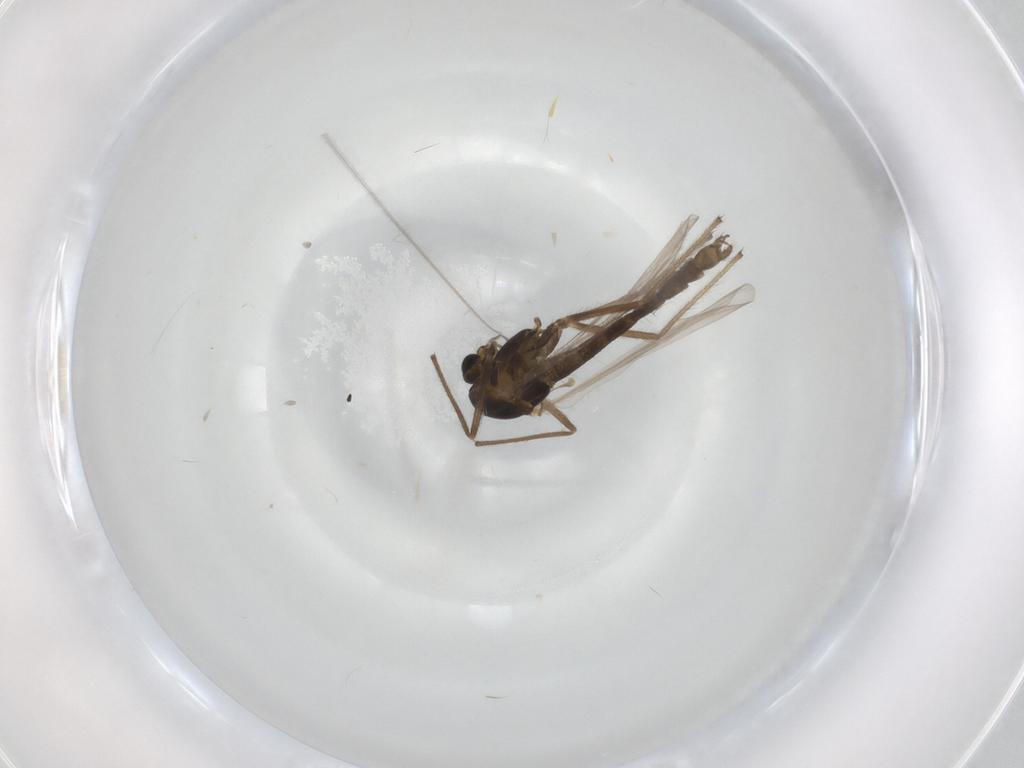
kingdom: Animalia
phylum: Arthropoda
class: Insecta
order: Diptera
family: Chironomidae
